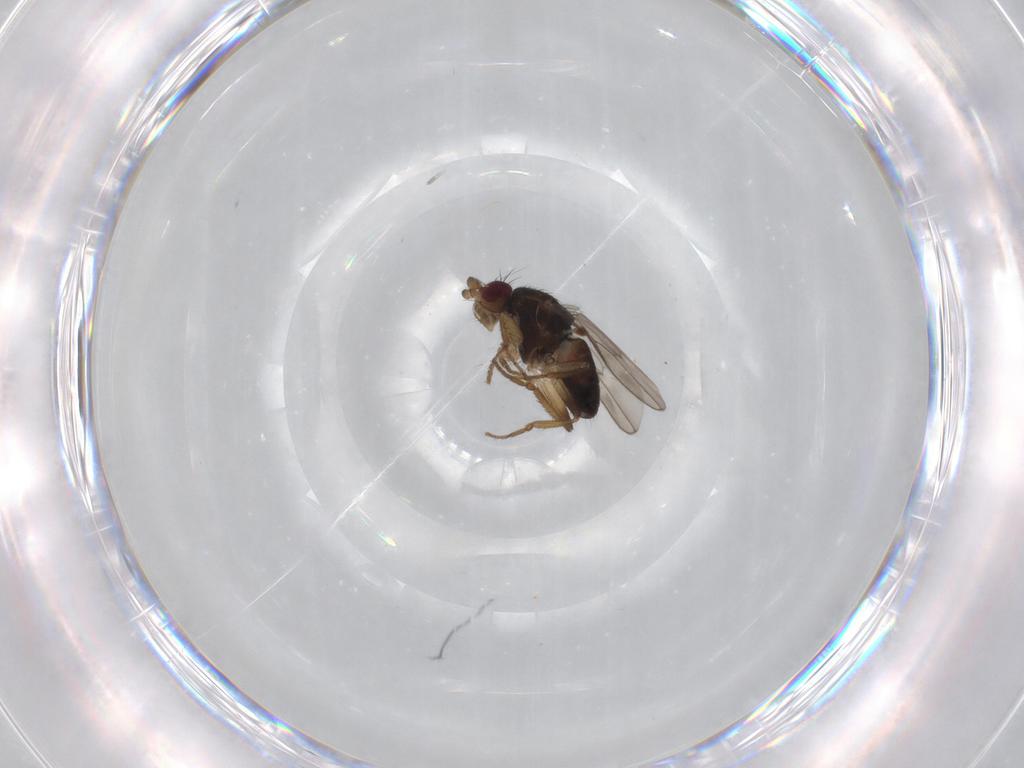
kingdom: Animalia
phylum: Arthropoda
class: Insecta
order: Diptera
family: Sphaeroceridae
